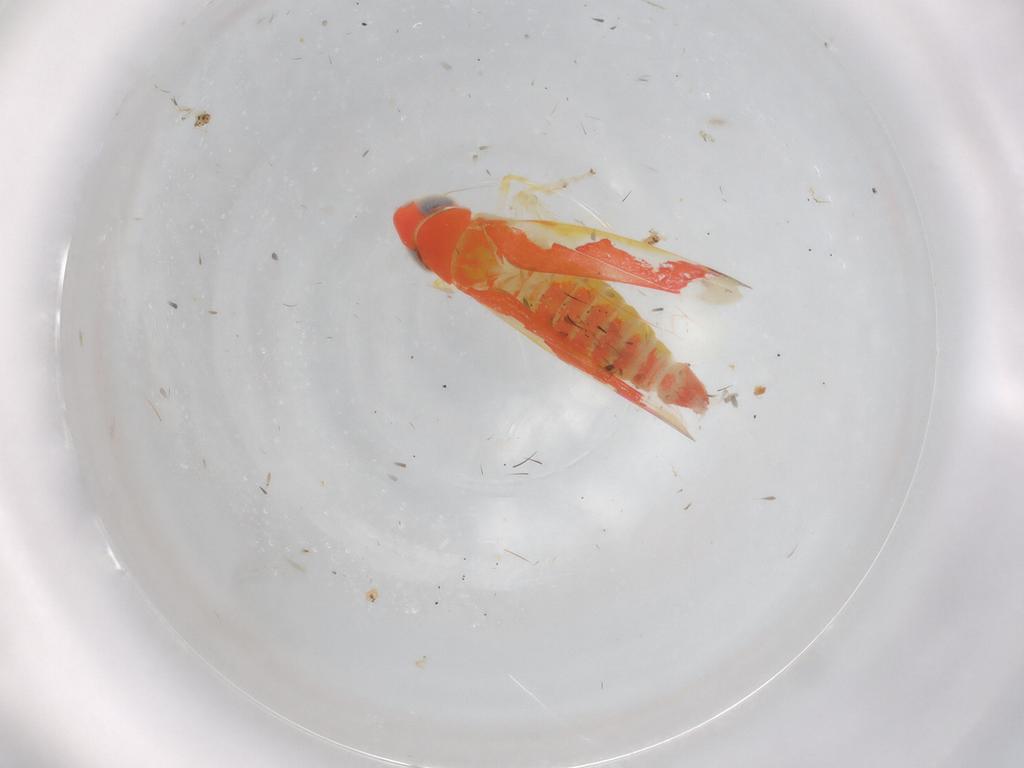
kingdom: Animalia
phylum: Arthropoda
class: Insecta
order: Hemiptera
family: Cicadellidae
